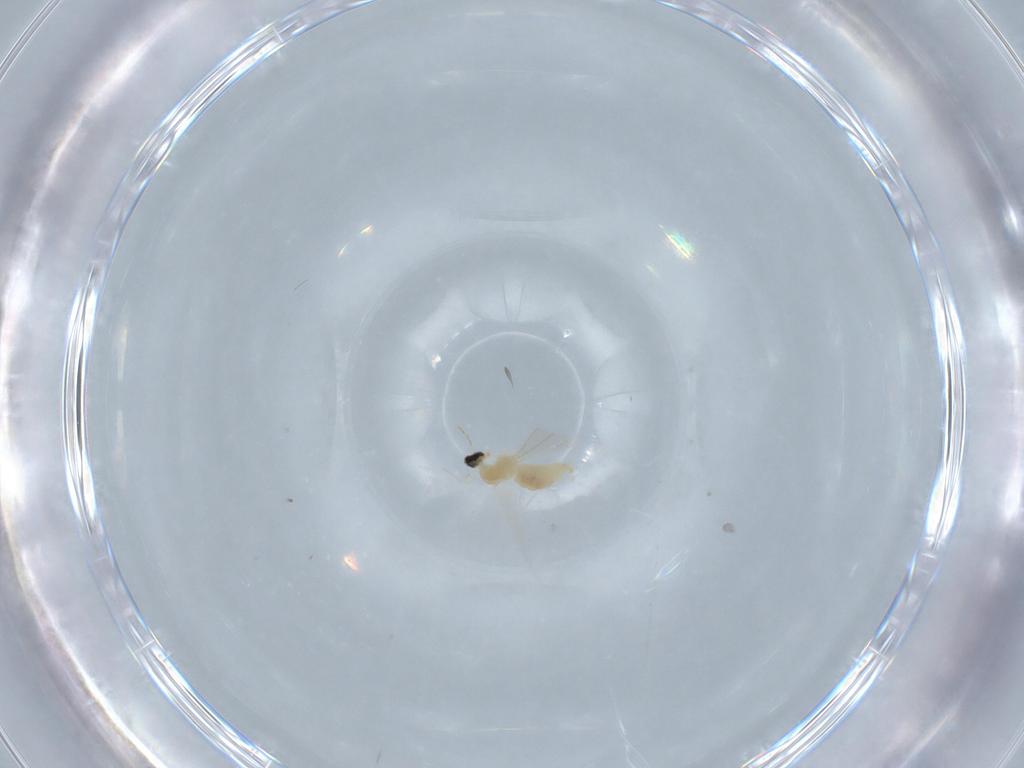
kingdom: Animalia
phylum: Arthropoda
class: Insecta
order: Diptera
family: Cecidomyiidae
